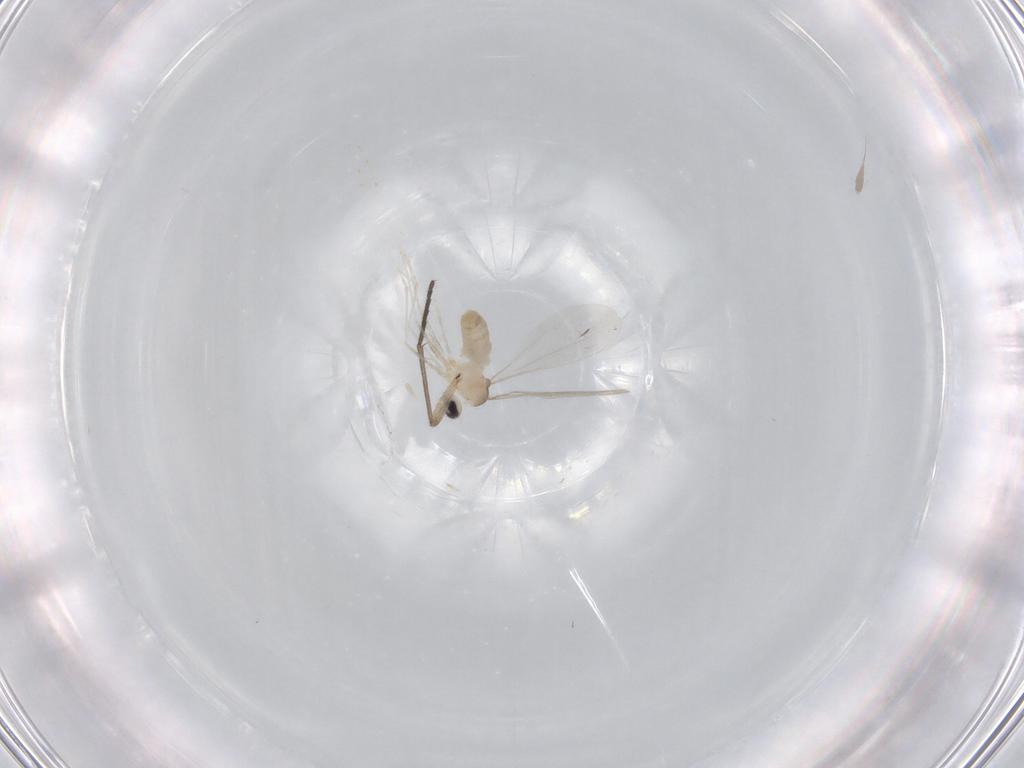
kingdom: Animalia
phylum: Arthropoda
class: Insecta
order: Diptera
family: Cecidomyiidae
